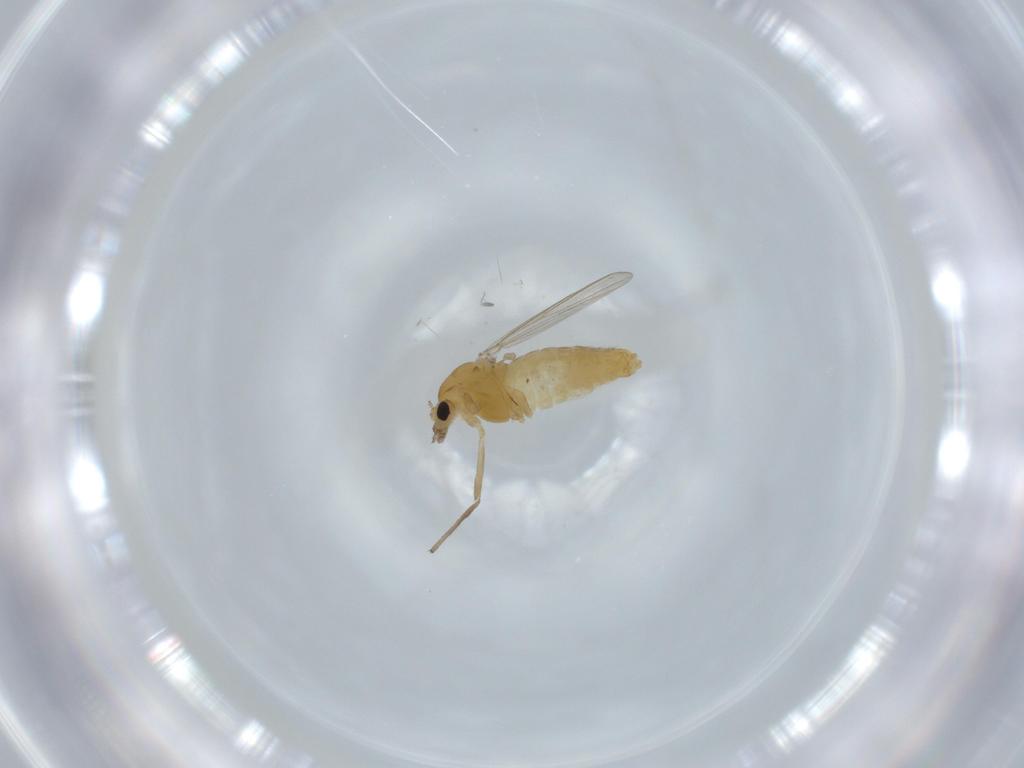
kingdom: Animalia
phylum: Arthropoda
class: Insecta
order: Diptera
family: Chironomidae
